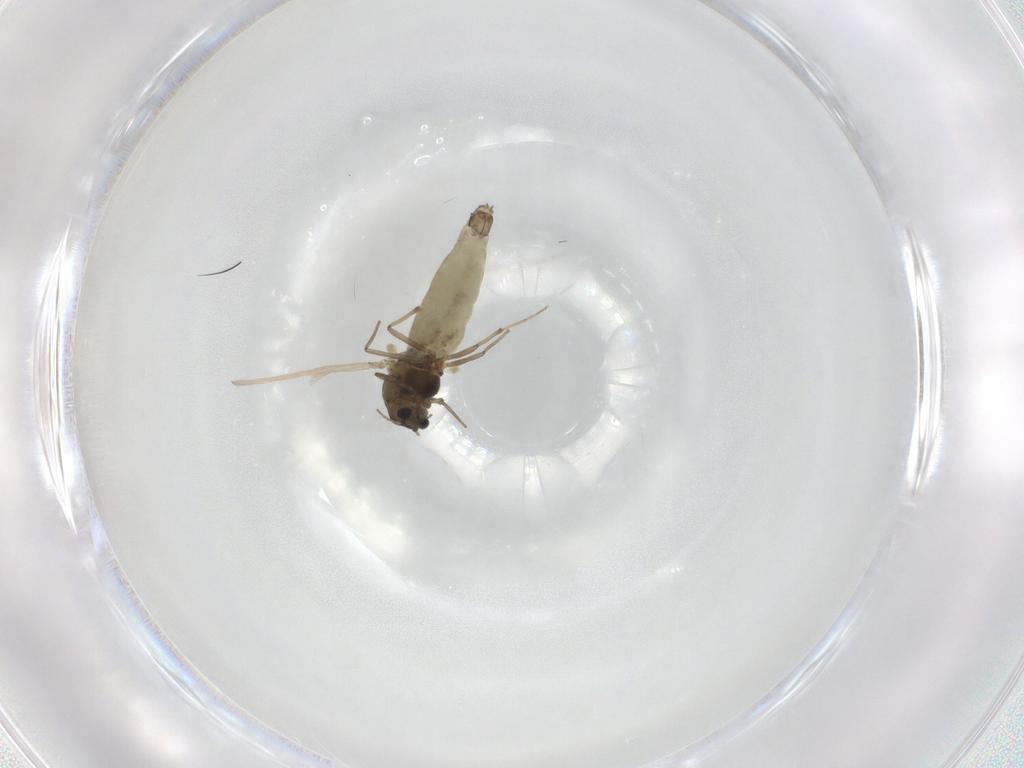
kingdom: Animalia
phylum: Arthropoda
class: Insecta
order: Diptera
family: Chironomidae
